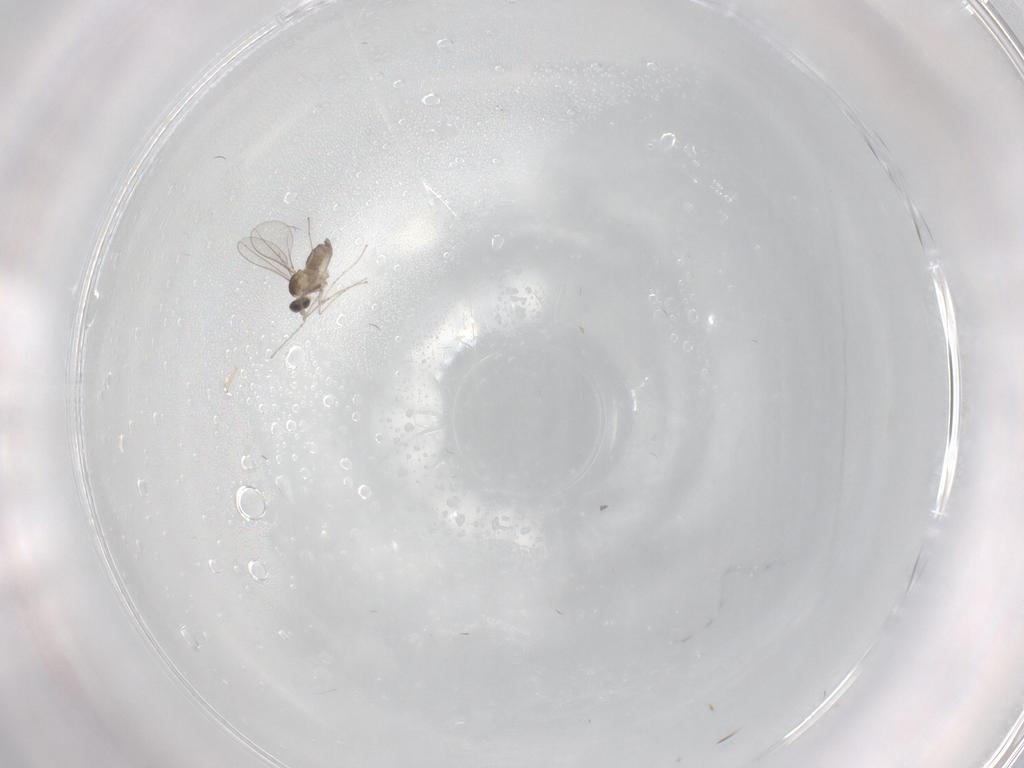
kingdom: Animalia
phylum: Arthropoda
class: Insecta
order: Diptera
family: Cecidomyiidae
